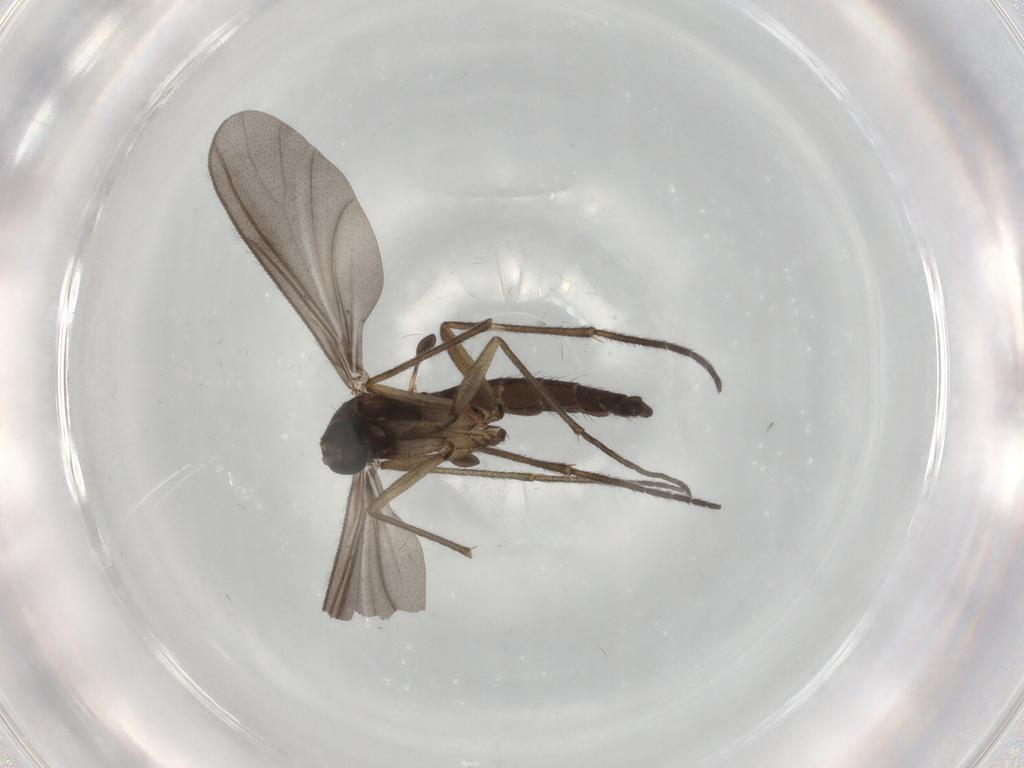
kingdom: Animalia
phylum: Arthropoda
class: Insecta
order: Diptera
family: Sciaridae
